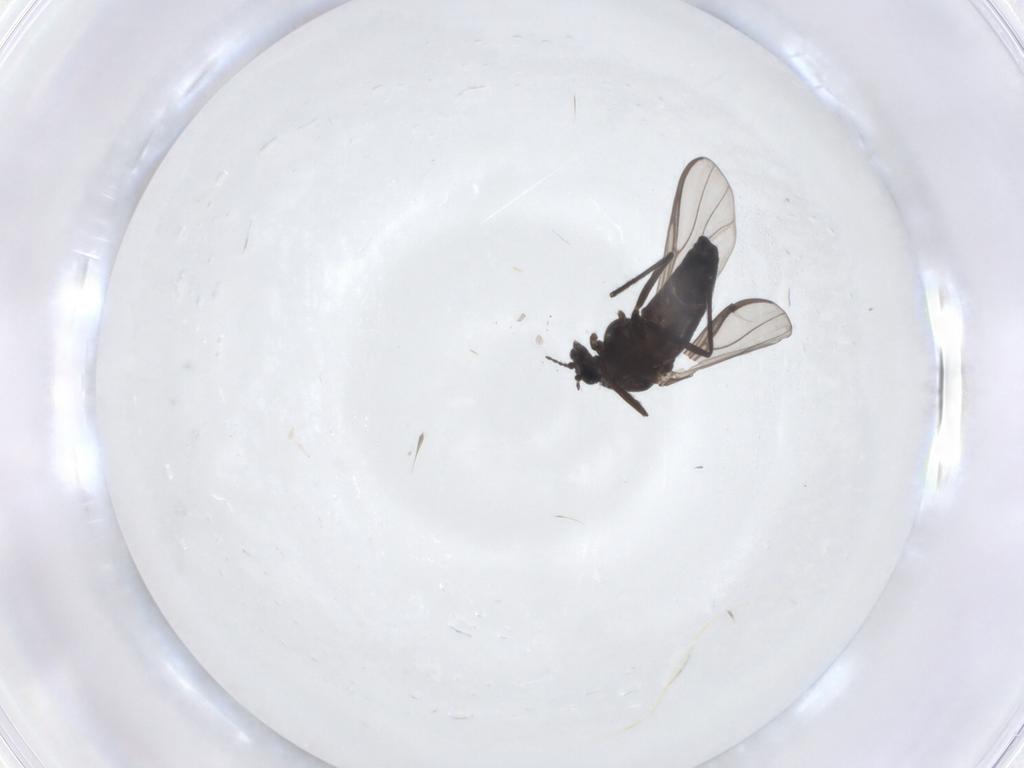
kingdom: Animalia
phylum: Arthropoda
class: Insecta
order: Diptera
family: Chironomidae
